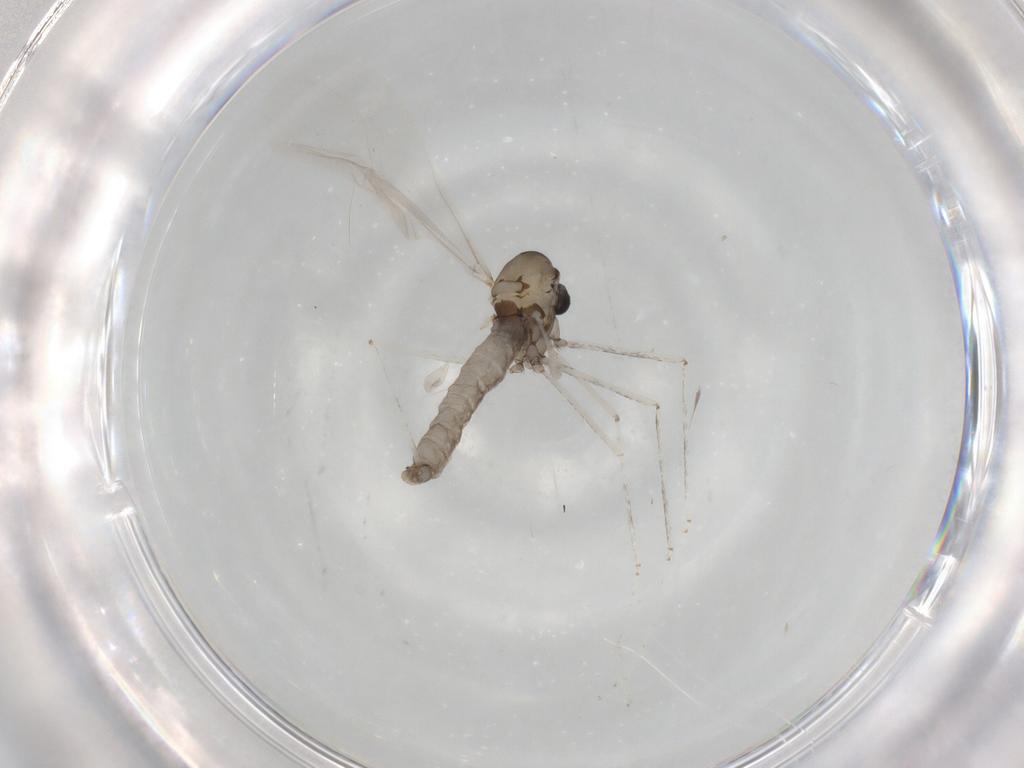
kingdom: Animalia
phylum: Arthropoda
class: Insecta
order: Diptera
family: Cecidomyiidae
